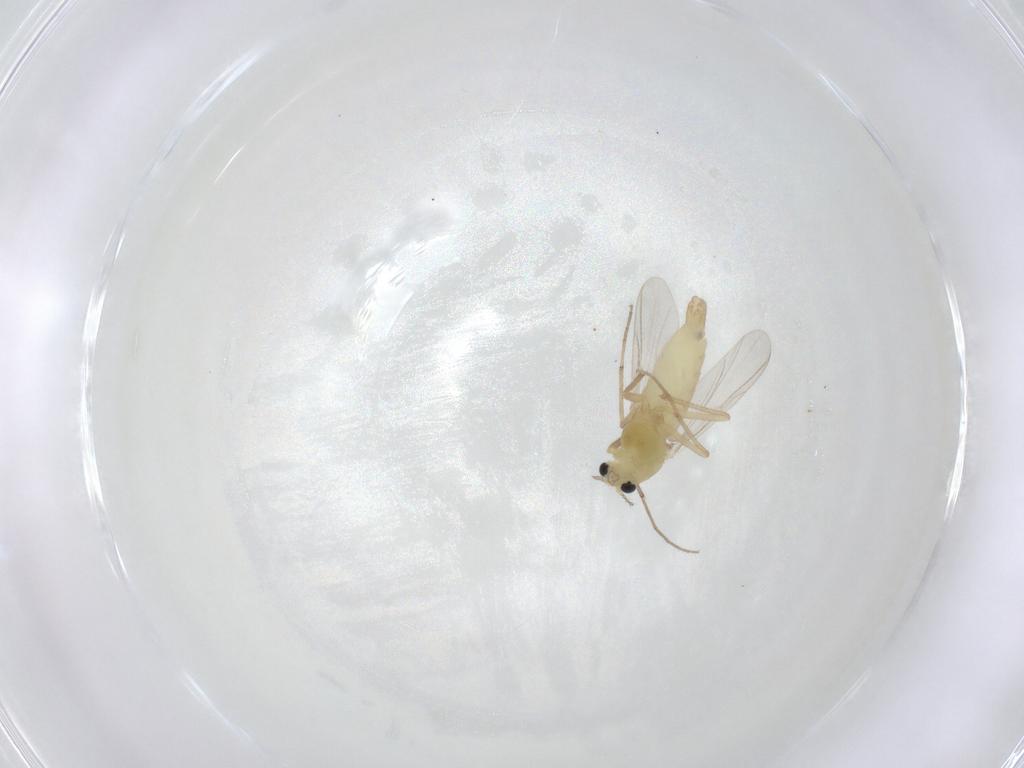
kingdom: Animalia
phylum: Arthropoda
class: Insecta
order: Diptera
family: Chironomidae
